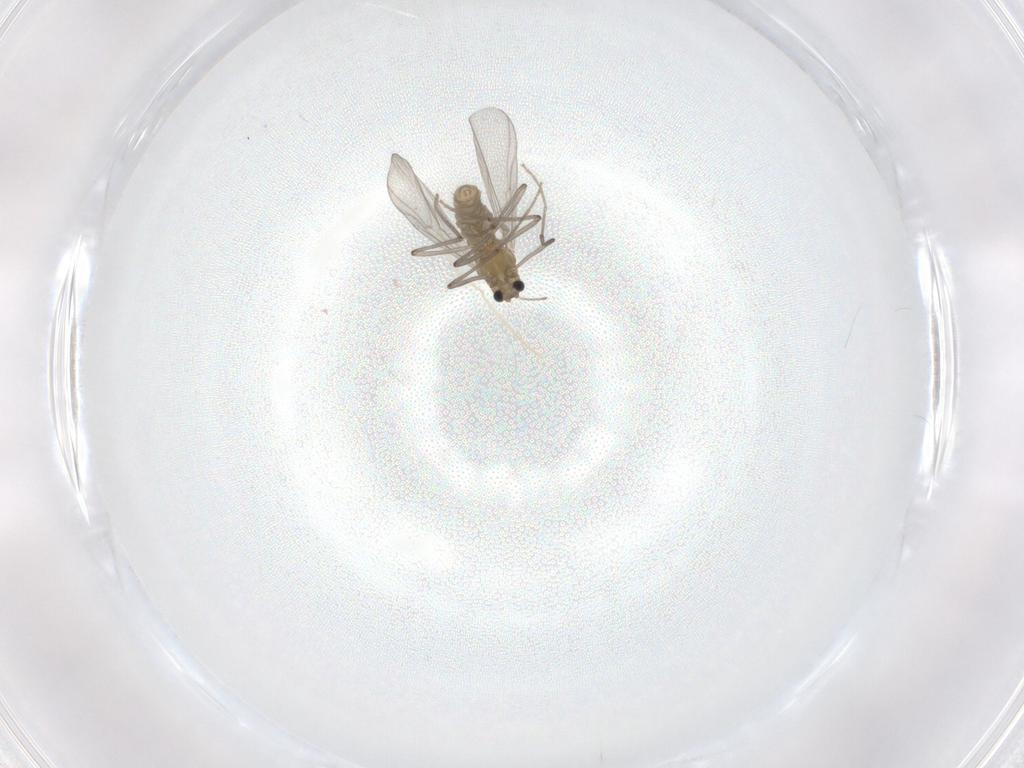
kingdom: Animalia
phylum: Arthropoda
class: Insecta
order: Diptera
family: Chironomidae
